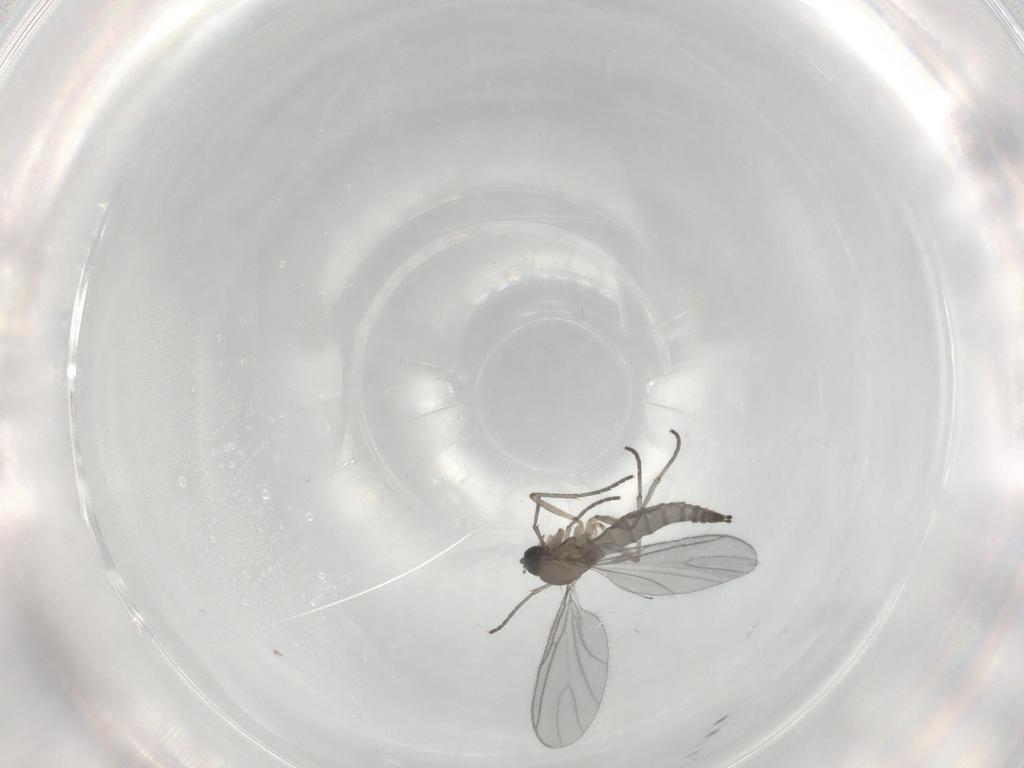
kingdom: Animalia
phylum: Arthropoda
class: Insecta
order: Diptera
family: Sciaridae
